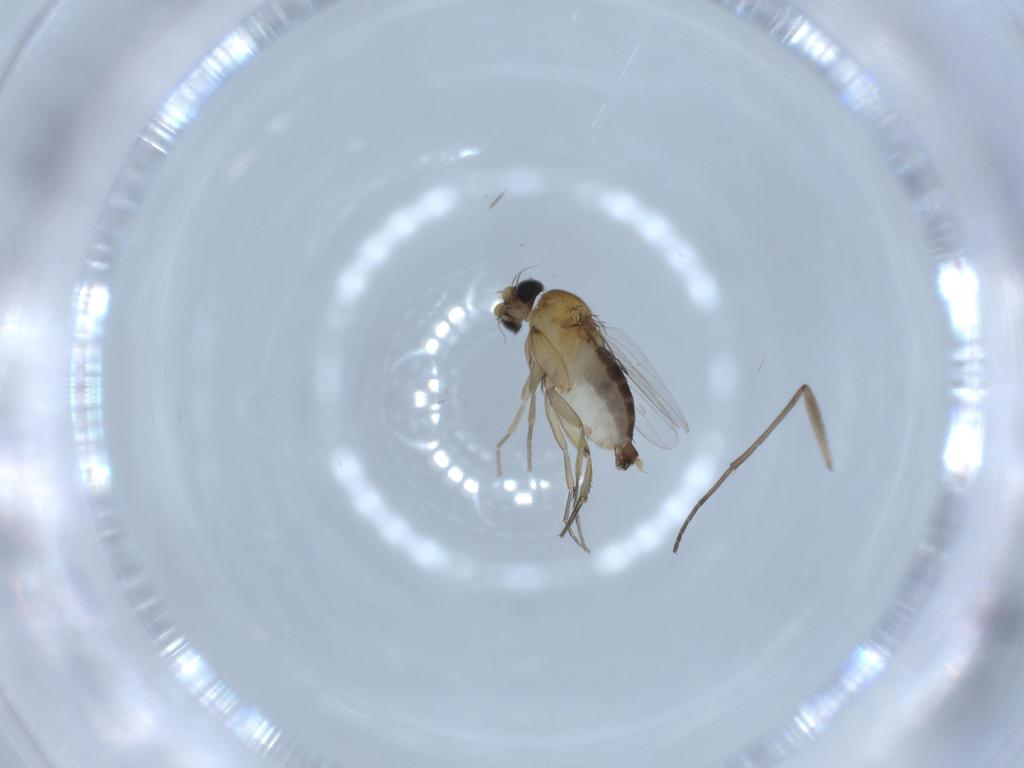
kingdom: Animalia
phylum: Arthropoda
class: Insecta
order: Diptera
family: Phoridae
